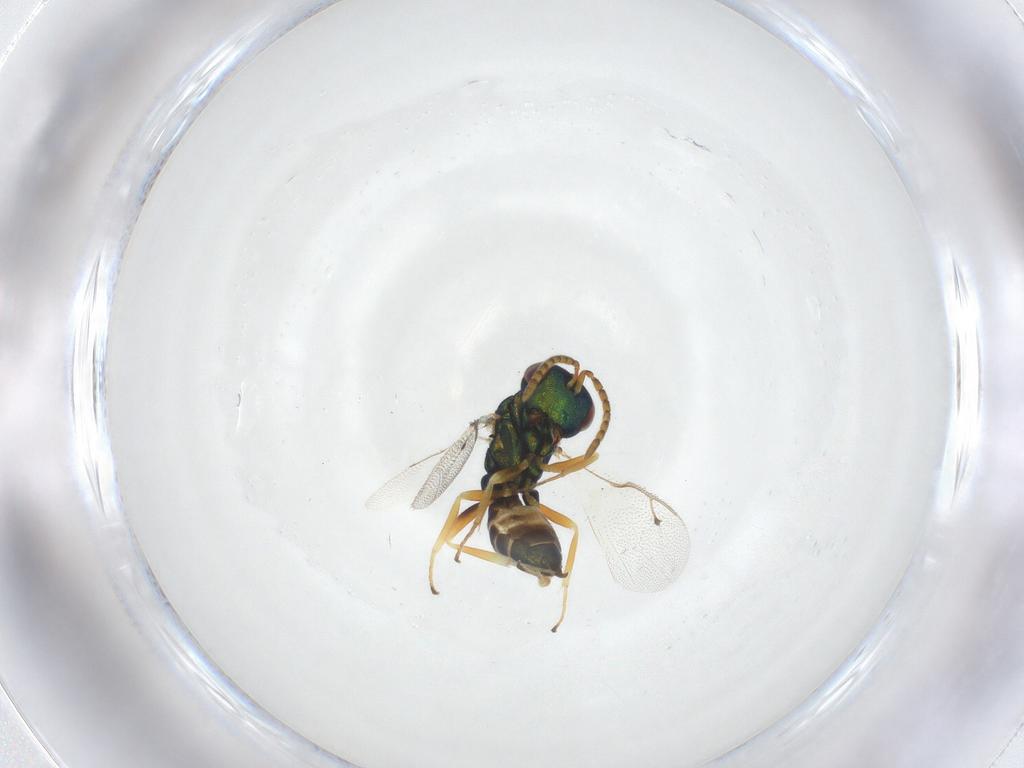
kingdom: Animalia
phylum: Arthropoda
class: Insecta
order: Hymenoptera
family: Pteromalidae
